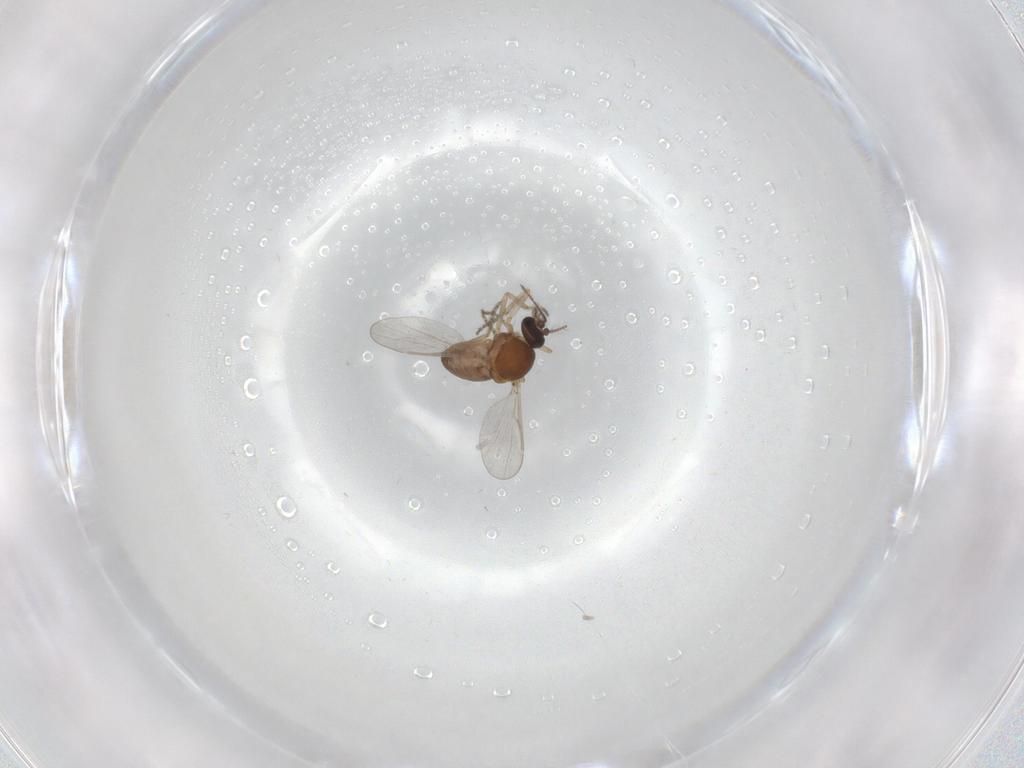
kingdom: Animalia
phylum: Arthropoda
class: Insecta
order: Diptera
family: Ceratopogonidae
